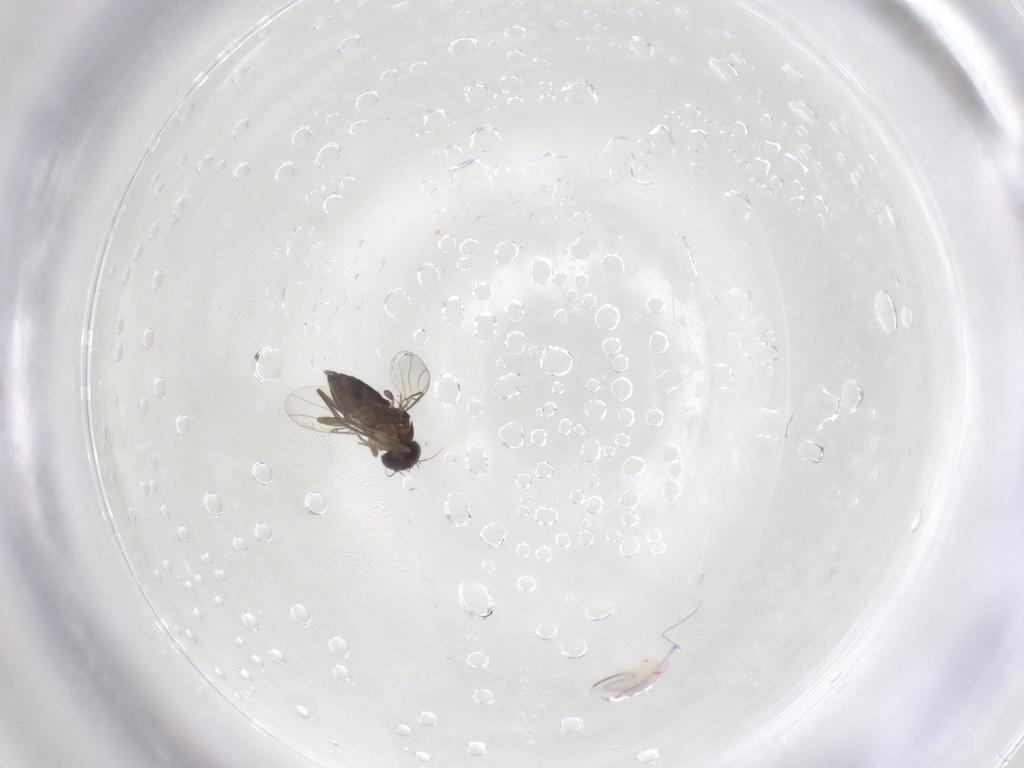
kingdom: Animalia
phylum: Arthropoda
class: Insecta
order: Diptera
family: Phoridae
